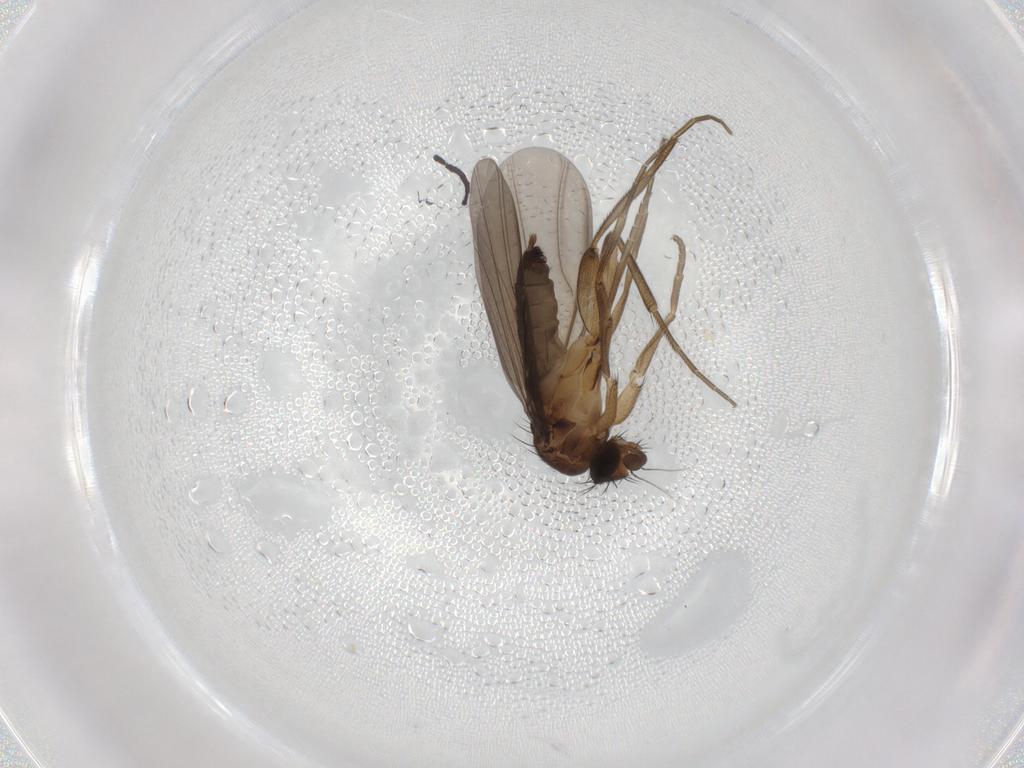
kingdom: Animalia
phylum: Arthropoda
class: Insecta
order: Diptera
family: Phoridae
